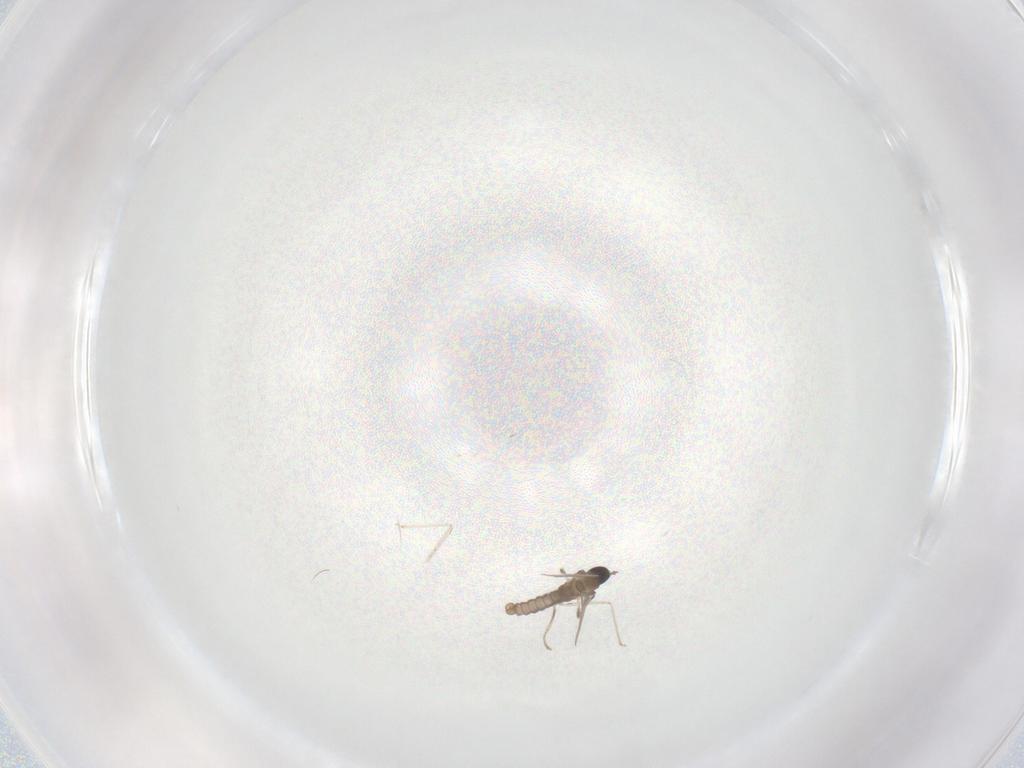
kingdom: Animalia
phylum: Arthropoda
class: Insecta
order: Diptera
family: Cecidomyiidae
